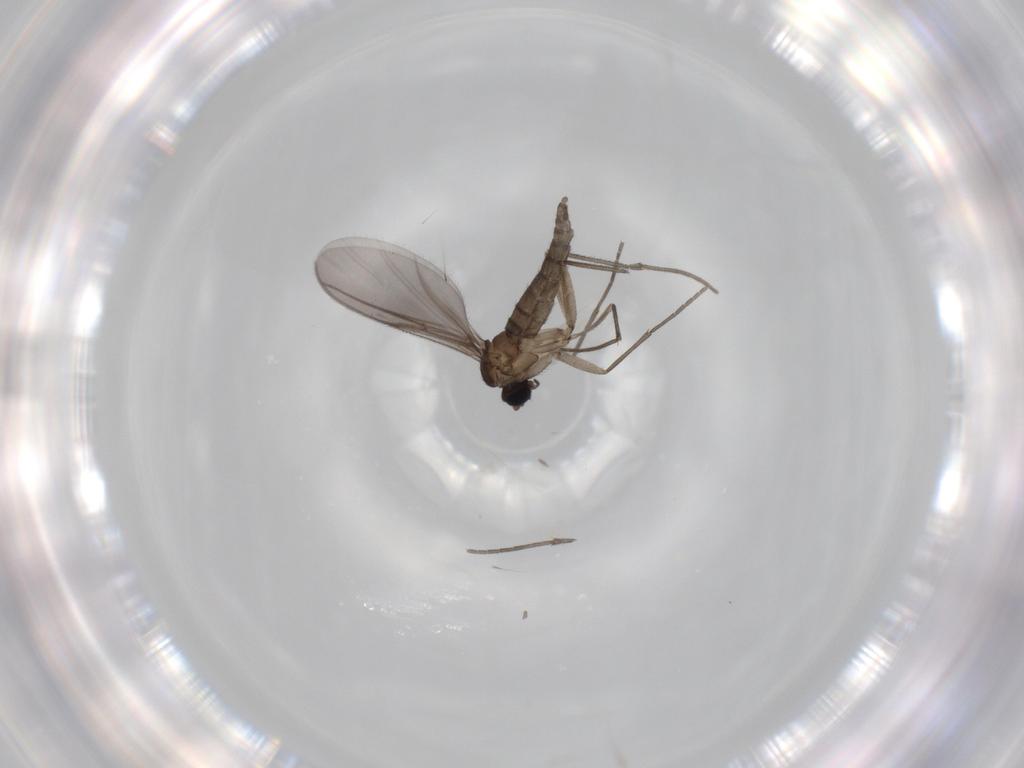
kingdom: Animalia
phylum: Arthropoda
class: Insecta
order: Diptera
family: Sciaridae
